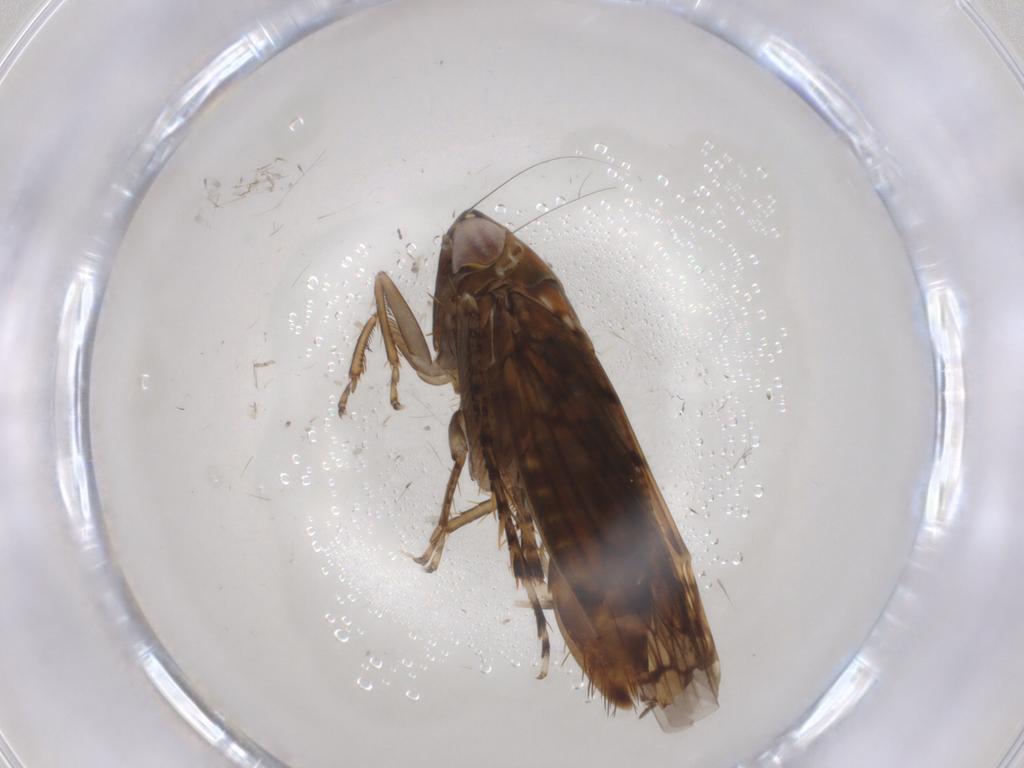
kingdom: Animalia
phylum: Arthropoda
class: Insecta
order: Hemiptera
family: Cicadellidae
